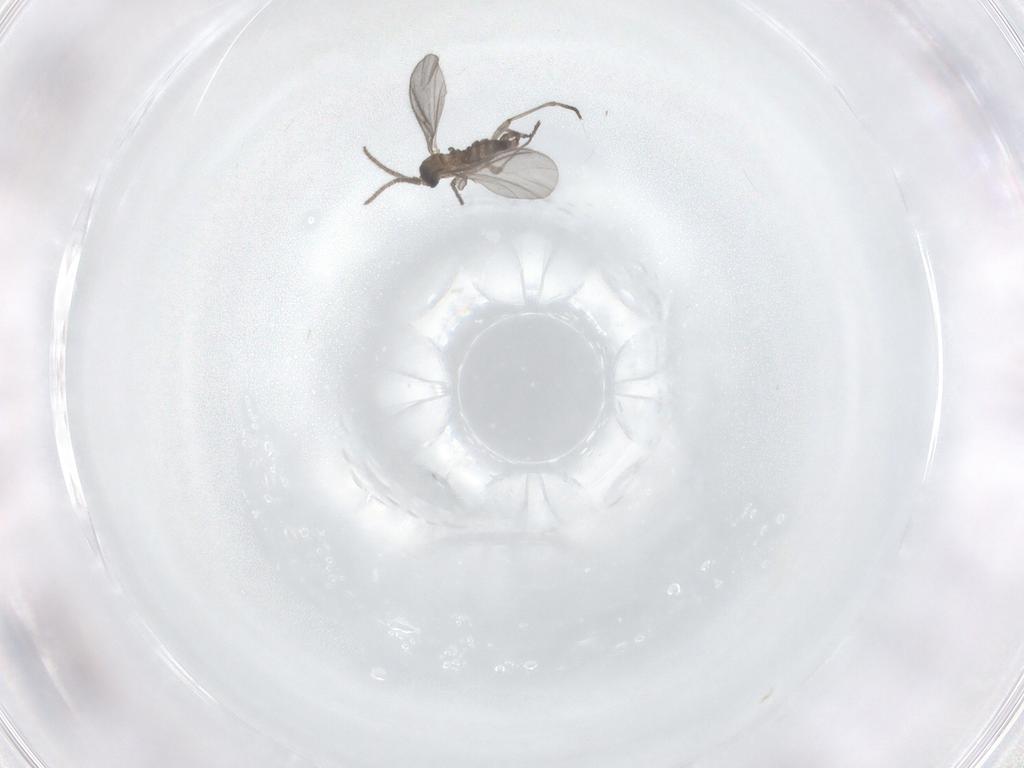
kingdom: Animalia
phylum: Arthropoda
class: Insecta
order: Diptera
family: Sciaridae
